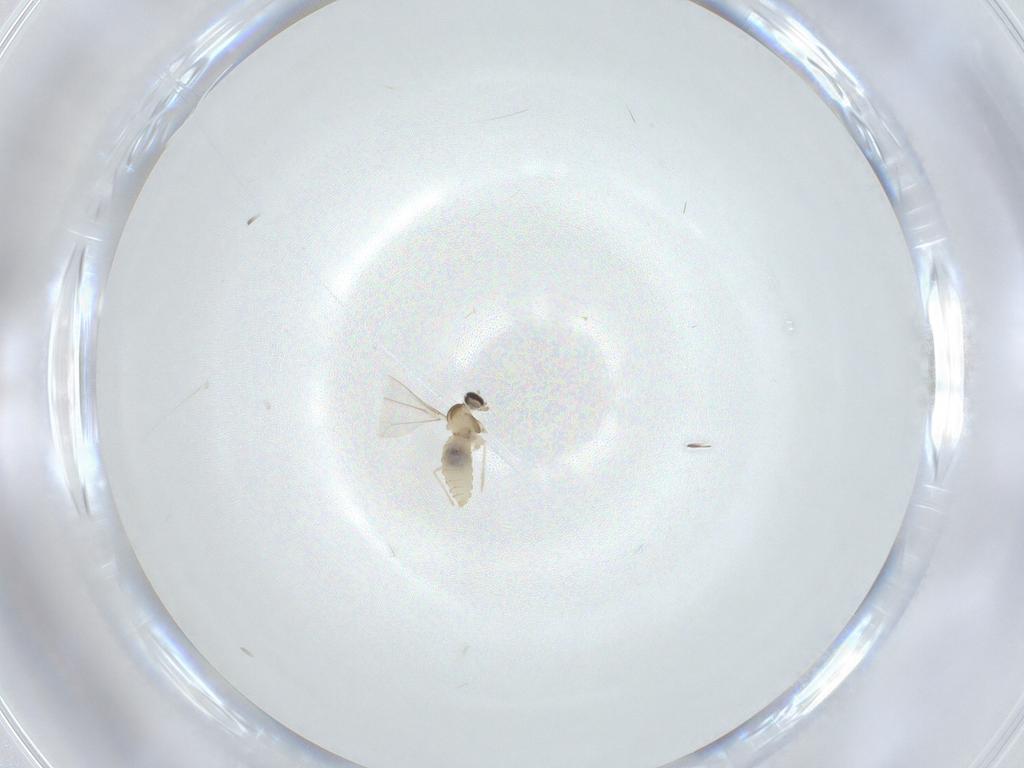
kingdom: Animalia
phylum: Arthropoda
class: Insecta
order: Diptera
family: Cecidomyiidae
